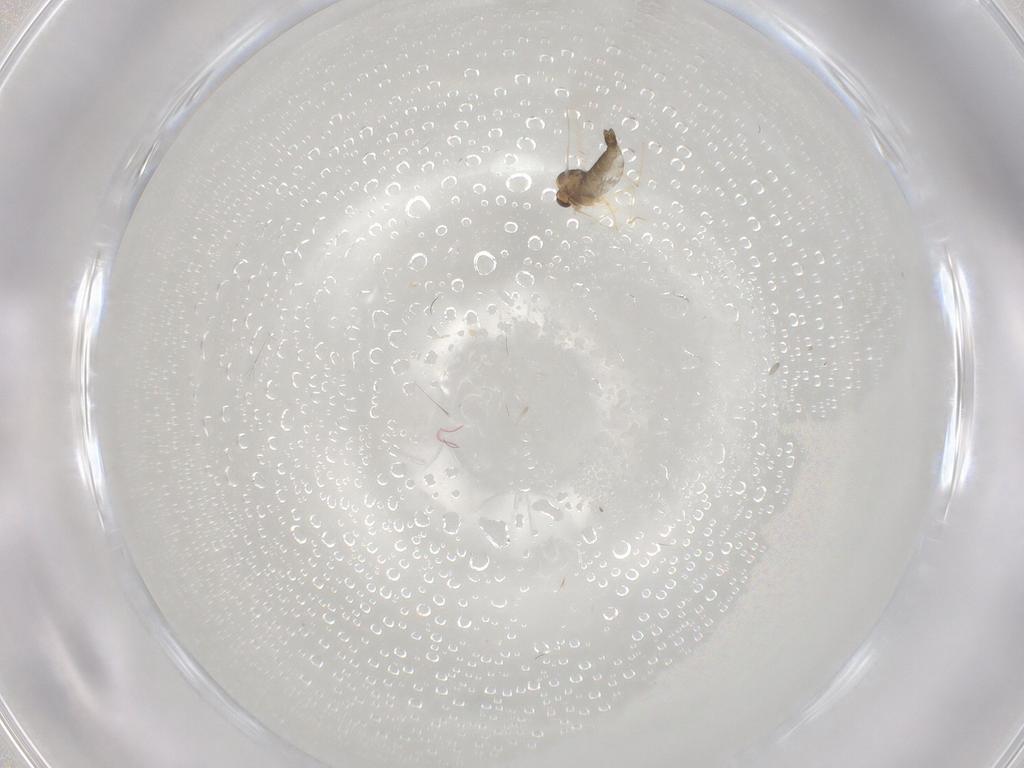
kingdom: Animalia
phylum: Arthropoda
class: Insecta
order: Diptera
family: Chironomidae
